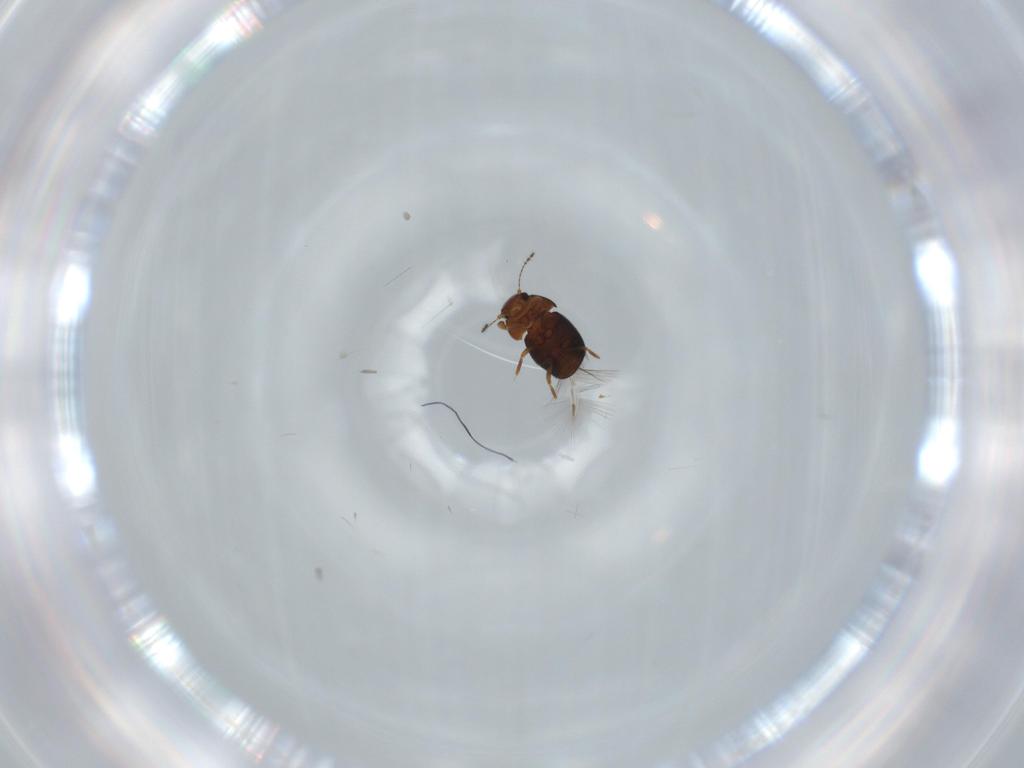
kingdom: Animalia
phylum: Arthropoda
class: Insecta
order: Coleoptera
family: Ptiliidae
